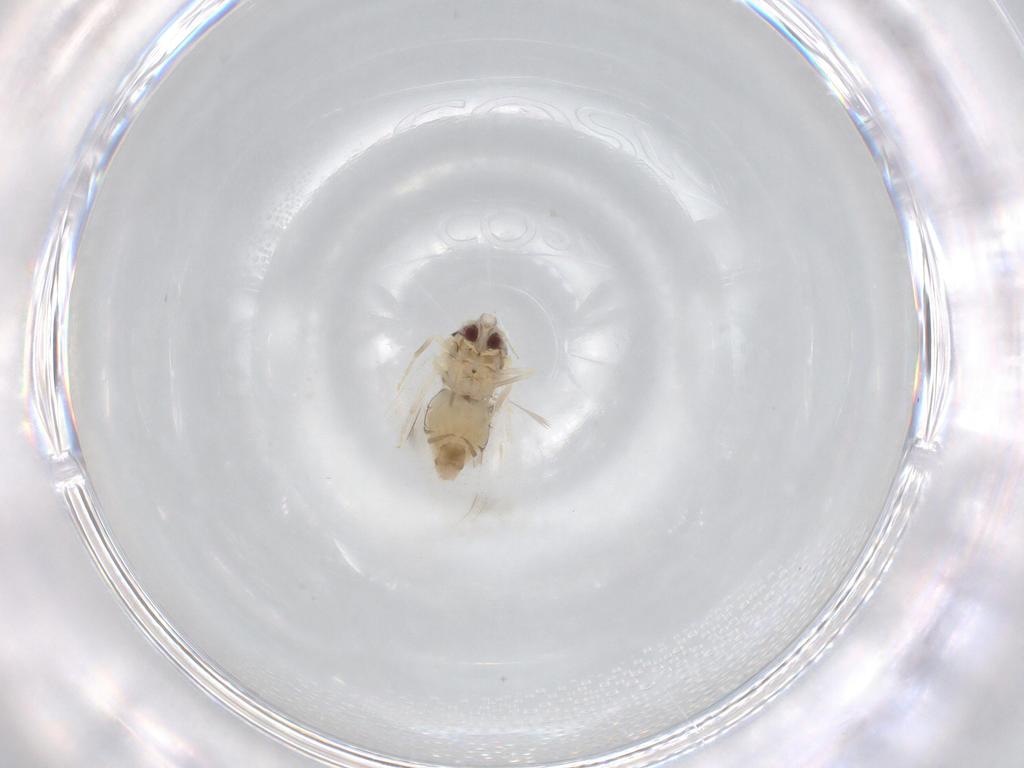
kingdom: Animalia
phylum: Arthropoda
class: Insecta
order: Hemiptera
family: Aleyrodidae
